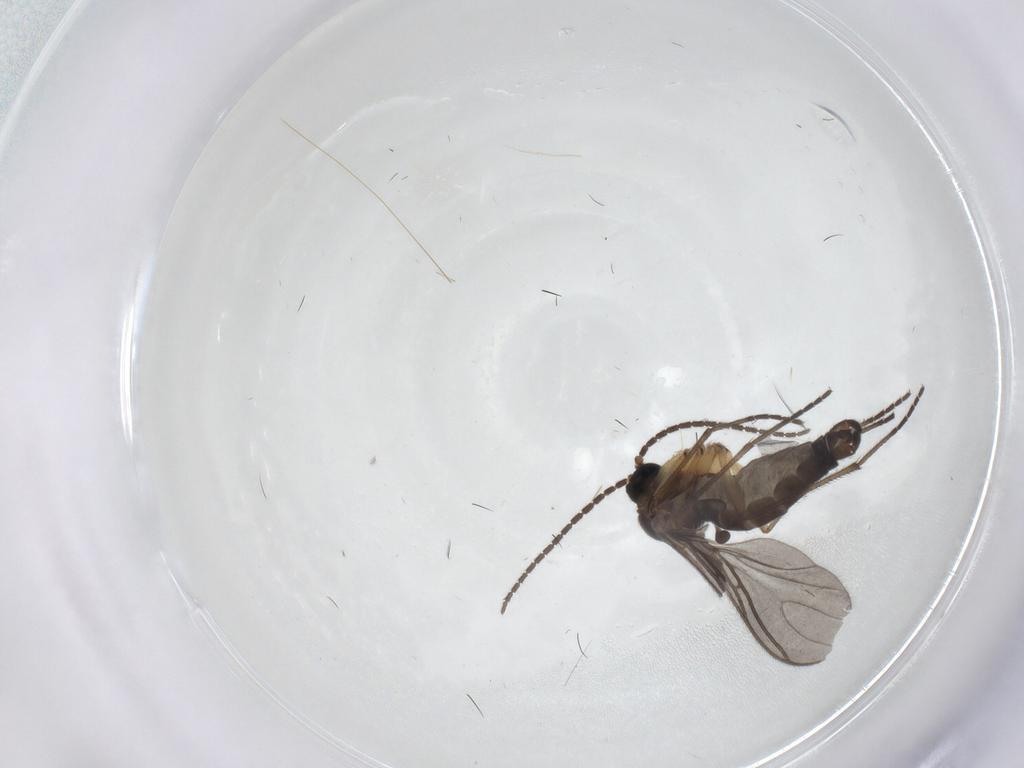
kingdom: Animalia
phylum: Arthropoda
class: Insecta
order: Diptera
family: Sciaridae
